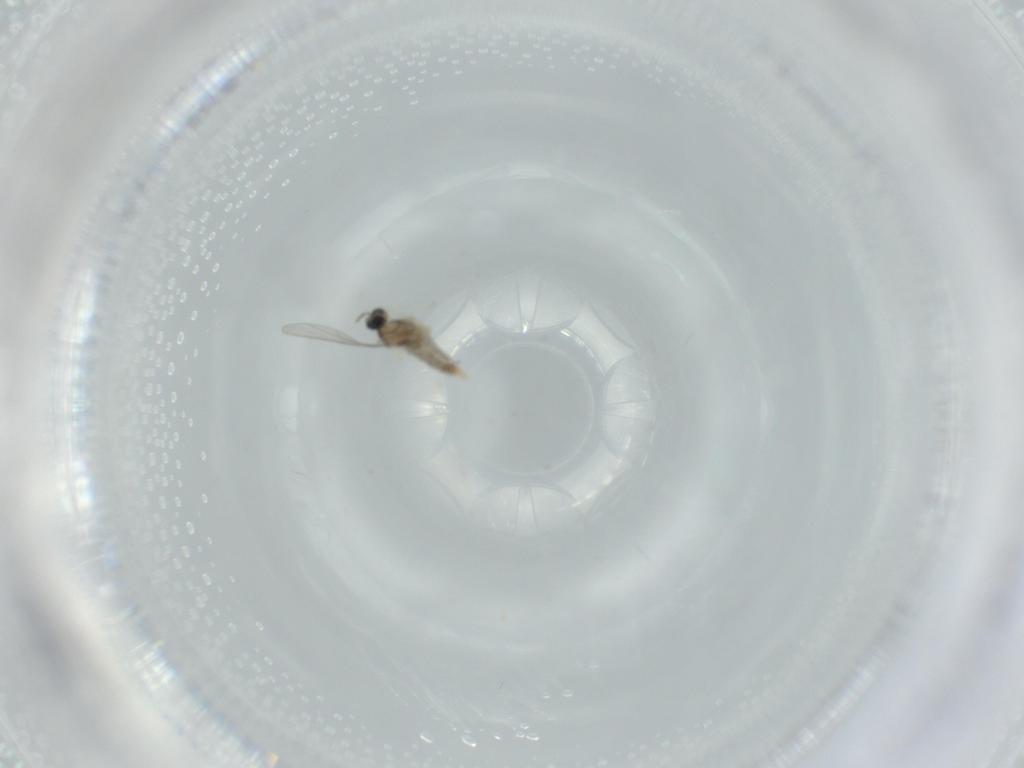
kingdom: Animalia
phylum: Arthropoda
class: Insecta
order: Diptera
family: Cecidomyiidae
